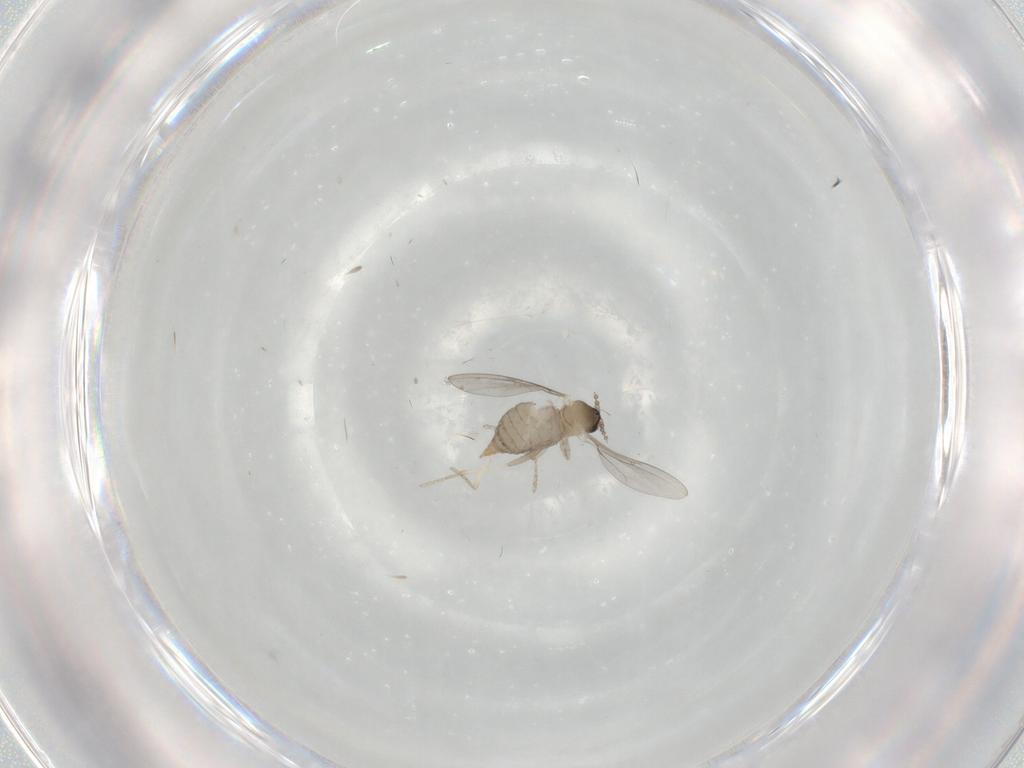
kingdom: Animalia
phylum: Arthropoda
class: Insecta
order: Diptera
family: Cecidomyiidae
